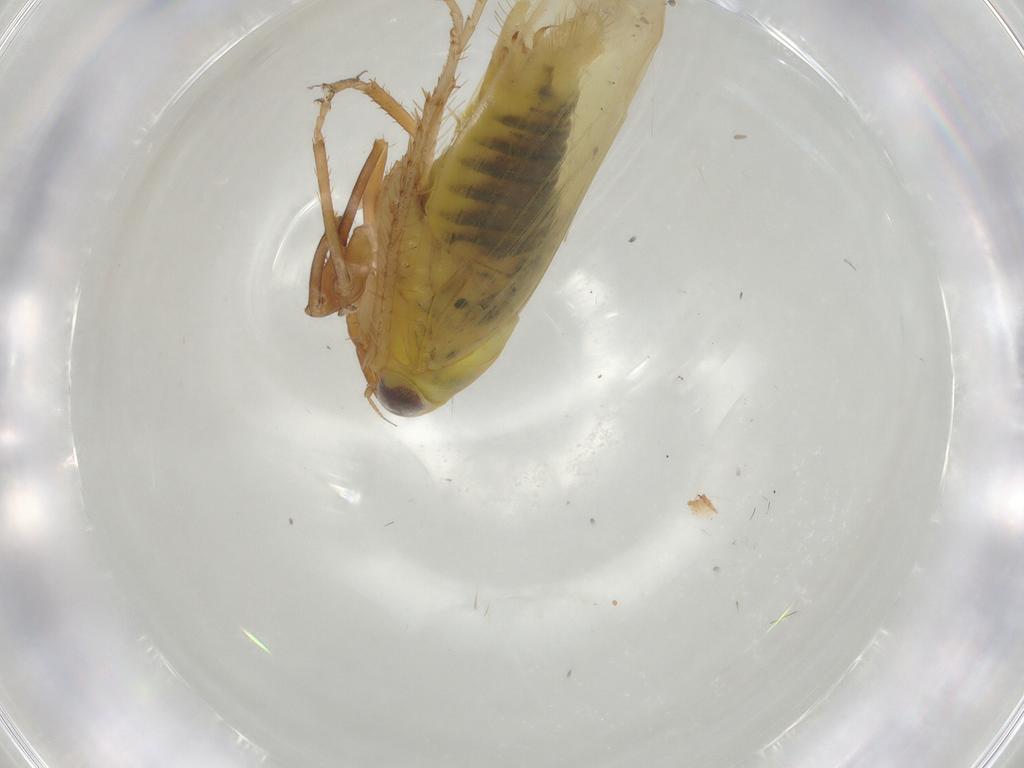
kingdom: Animalia
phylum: Arthropoda
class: Insecta
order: Hemiptera
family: Cicadellidae
